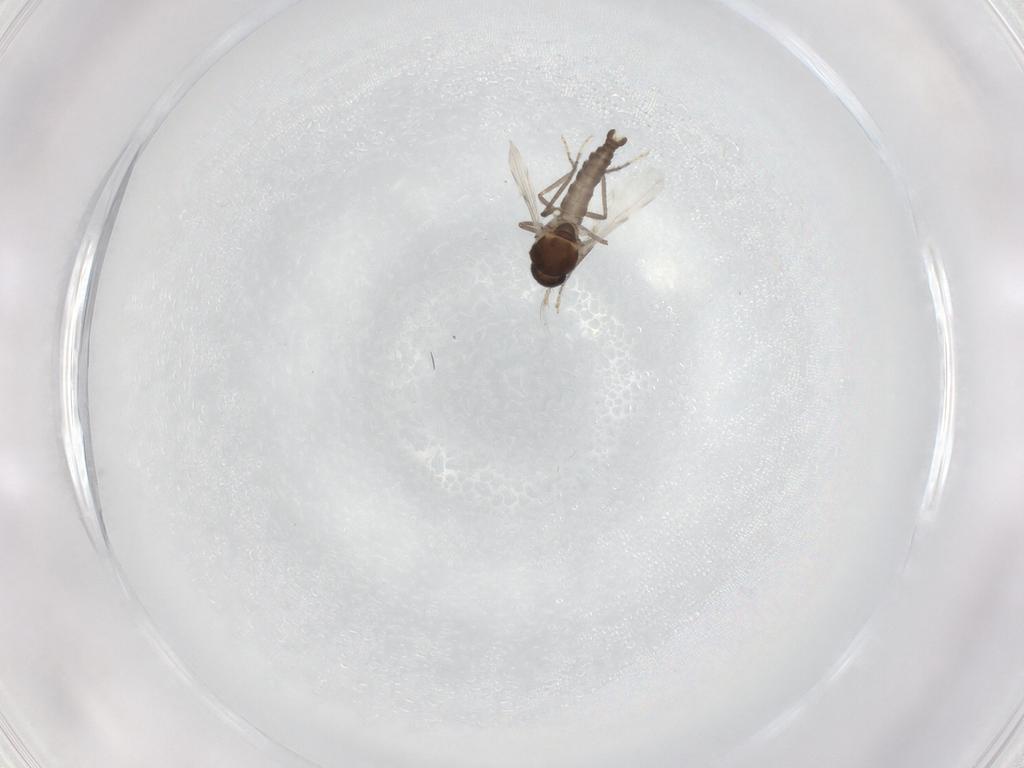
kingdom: Animalia
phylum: Arthropoda
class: Insecta
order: Diptera
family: Ceratopogonidae
